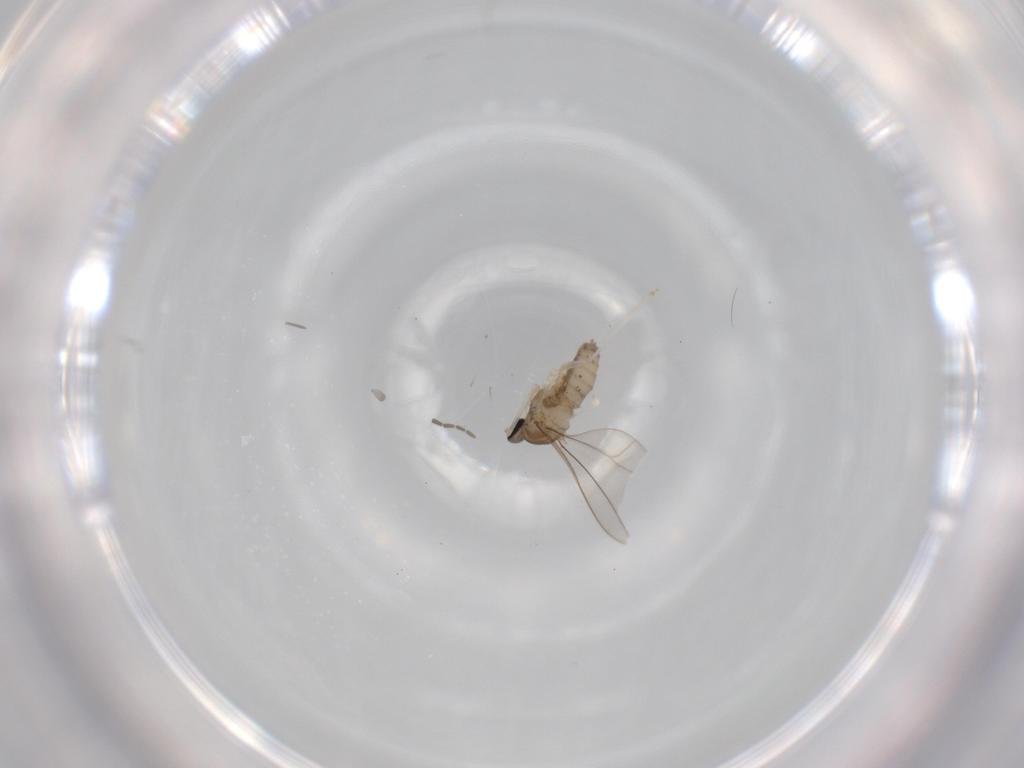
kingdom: Animalia
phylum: Arthropoda
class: Insecta
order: Diptera
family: Cecidomyiidae
